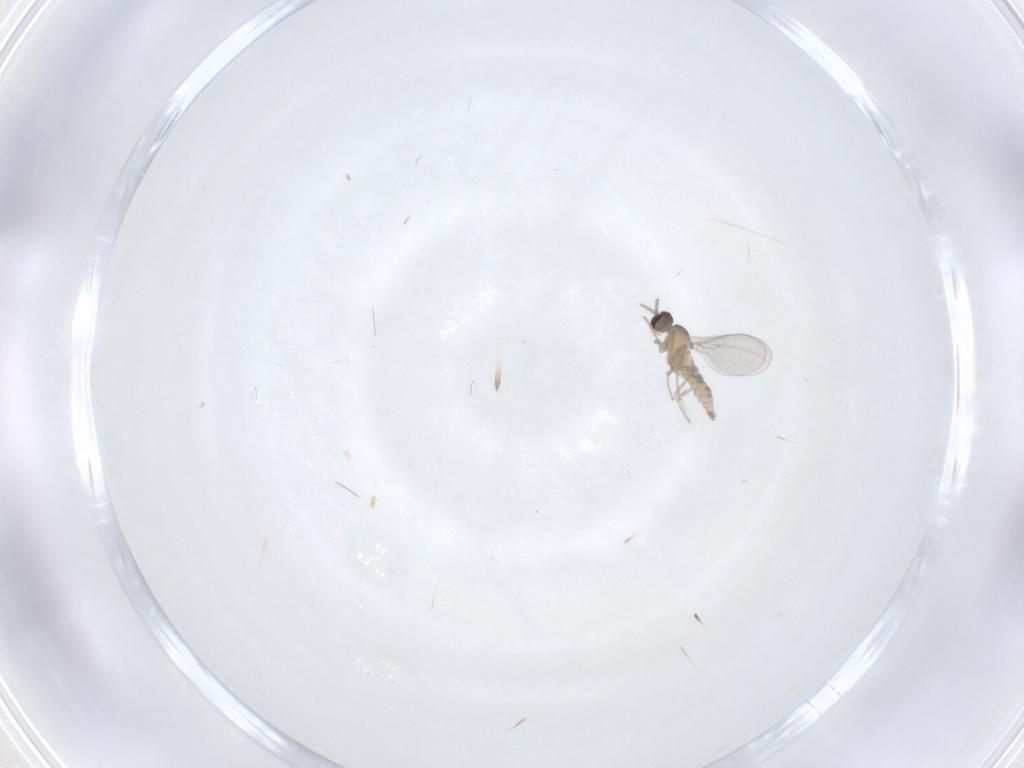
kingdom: Animalia
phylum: Arthropoda
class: Insecta
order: Diptera
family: Cecidomyiidae
